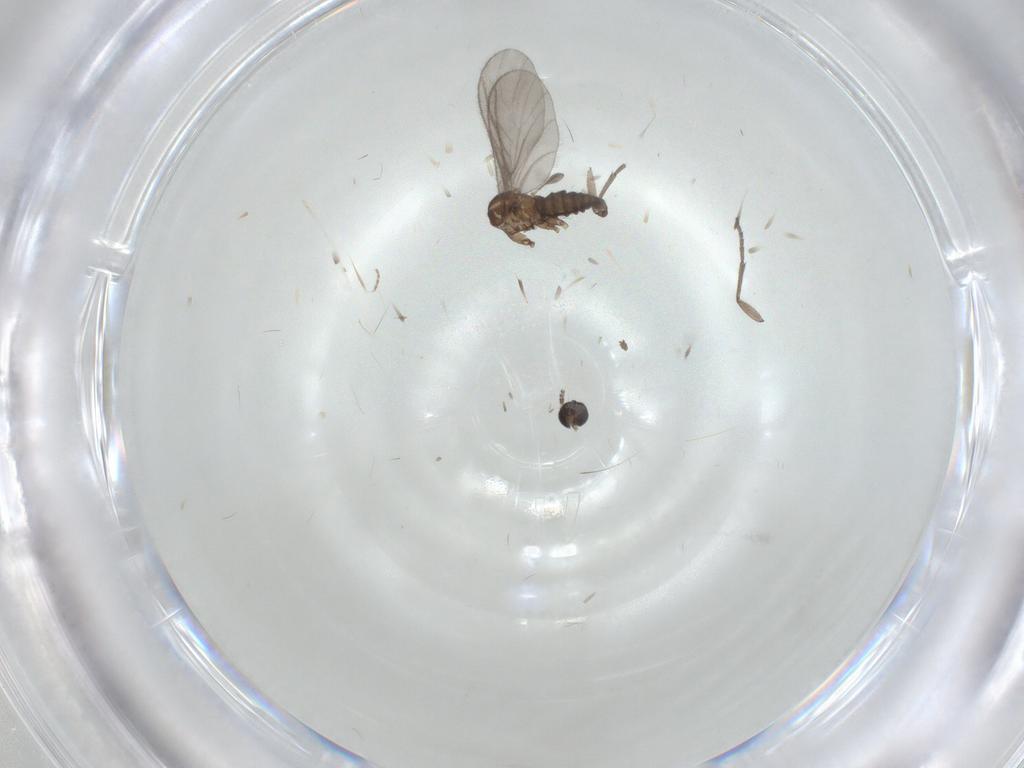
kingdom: Animalia
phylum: Arthropoda
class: Insecta
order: Diptera
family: Sciaridae
